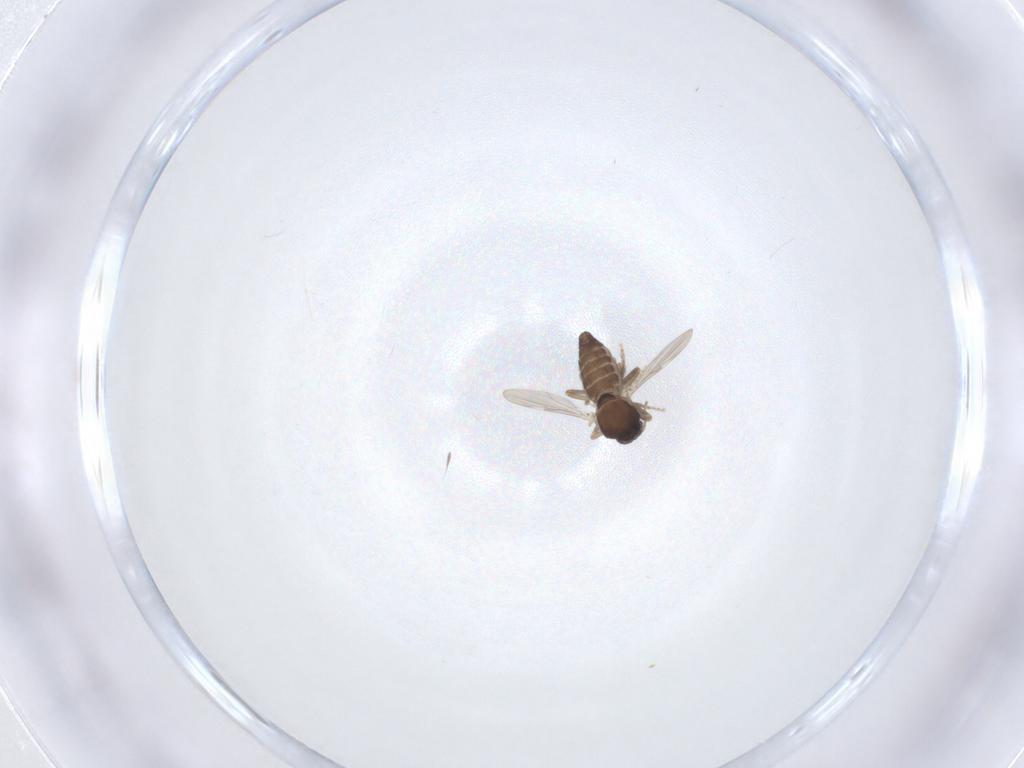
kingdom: Animalia
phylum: Arthropoda
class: Insecta
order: Diptera
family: Ceratopogonidae
